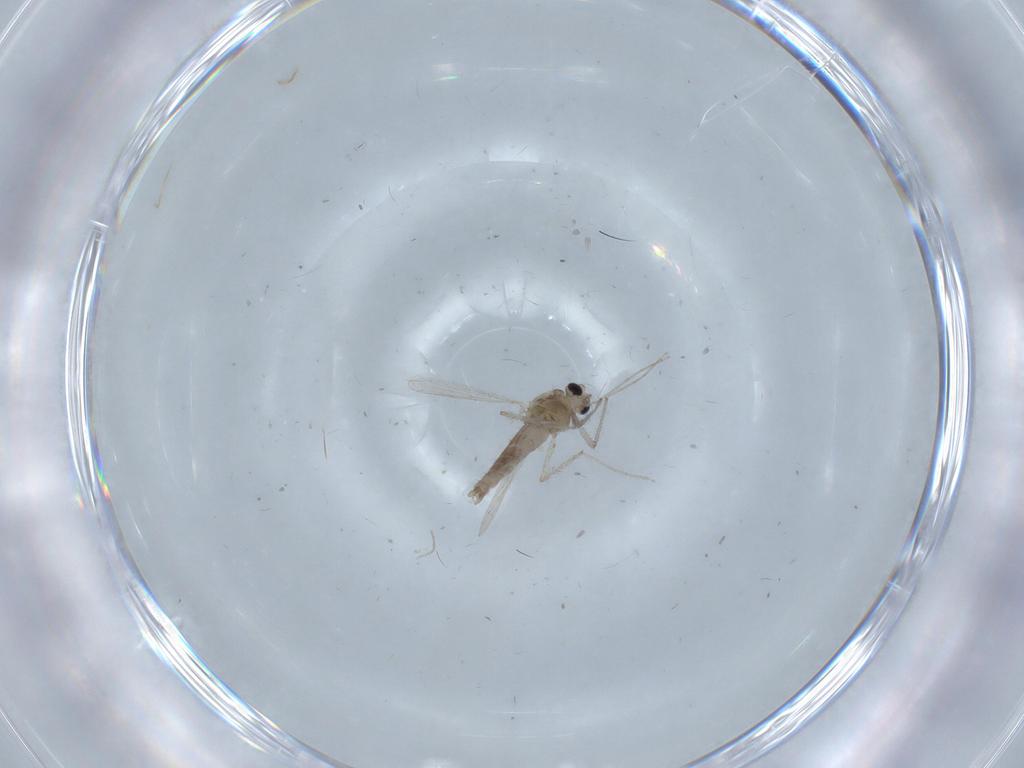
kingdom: Animalia
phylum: Arthropoda
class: Insecta
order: Diptera
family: Chironomidae
